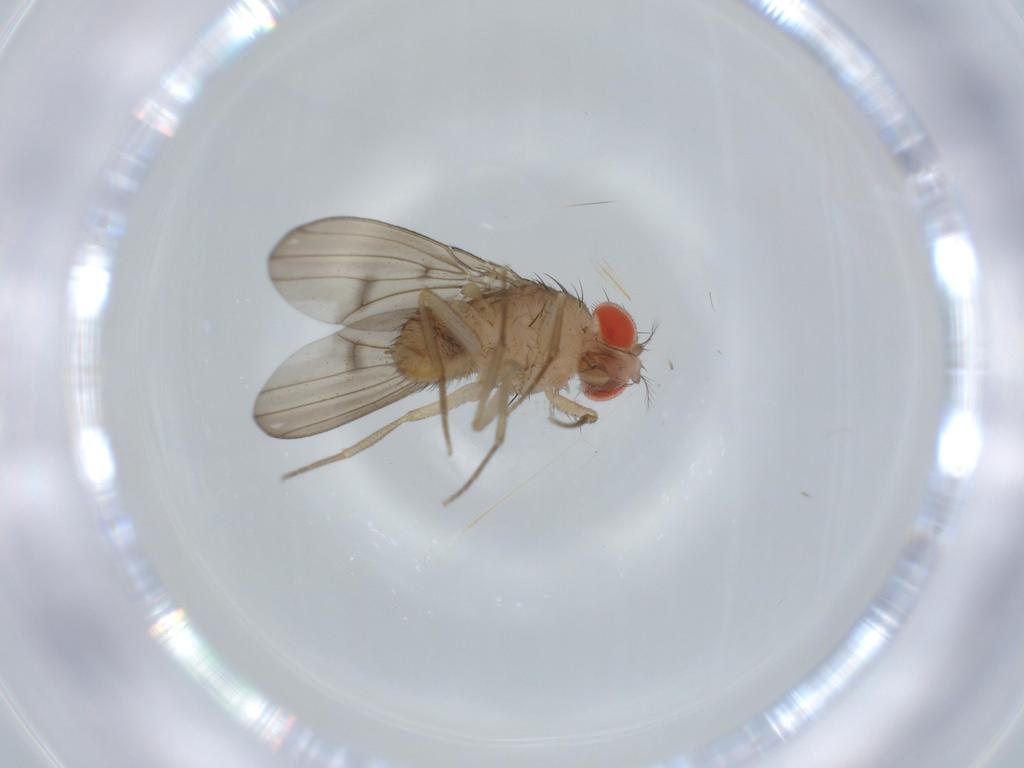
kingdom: Animalia
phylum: Arthropoda
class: Insecta
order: Diptera
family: Drosophilidae
